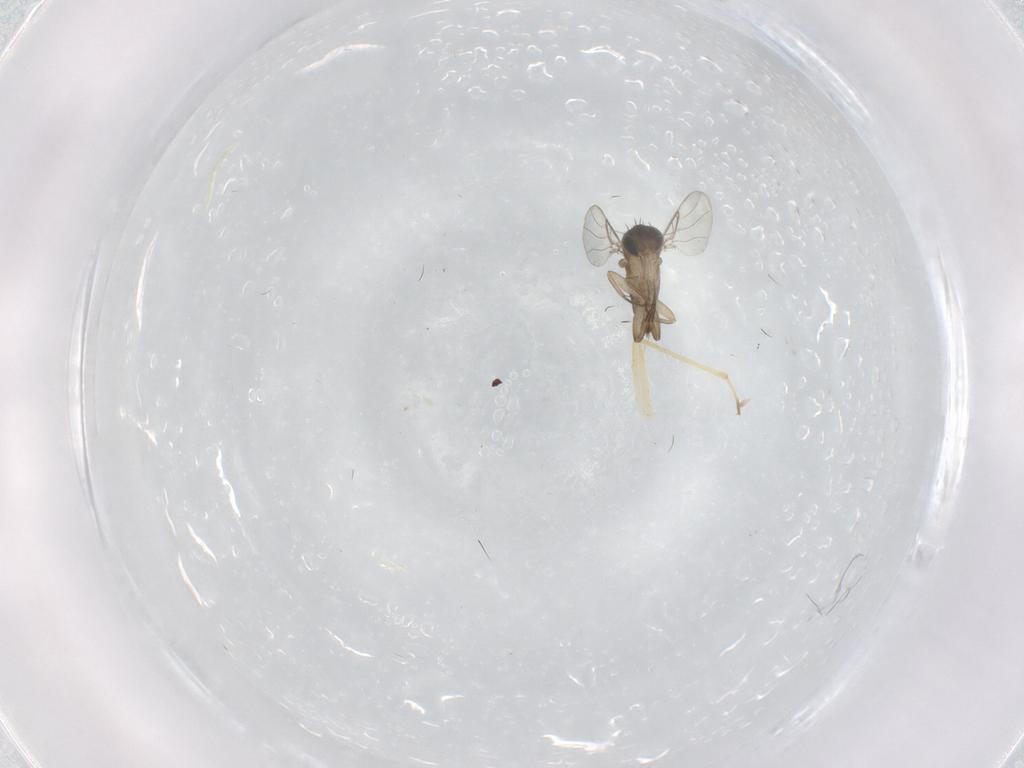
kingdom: Animalia
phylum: Arthropoda
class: Insecta
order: Diptera
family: Phoridae
